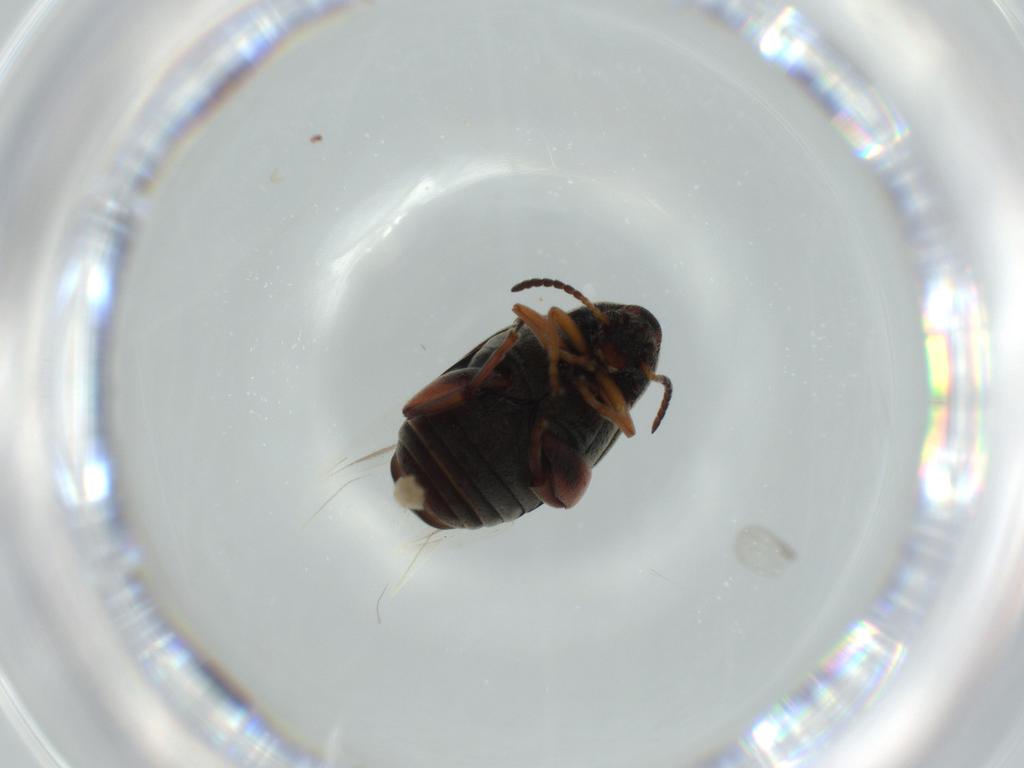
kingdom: Animalia
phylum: Arthropoda
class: Insecta
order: Coleoptera
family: Chrysomelidae
